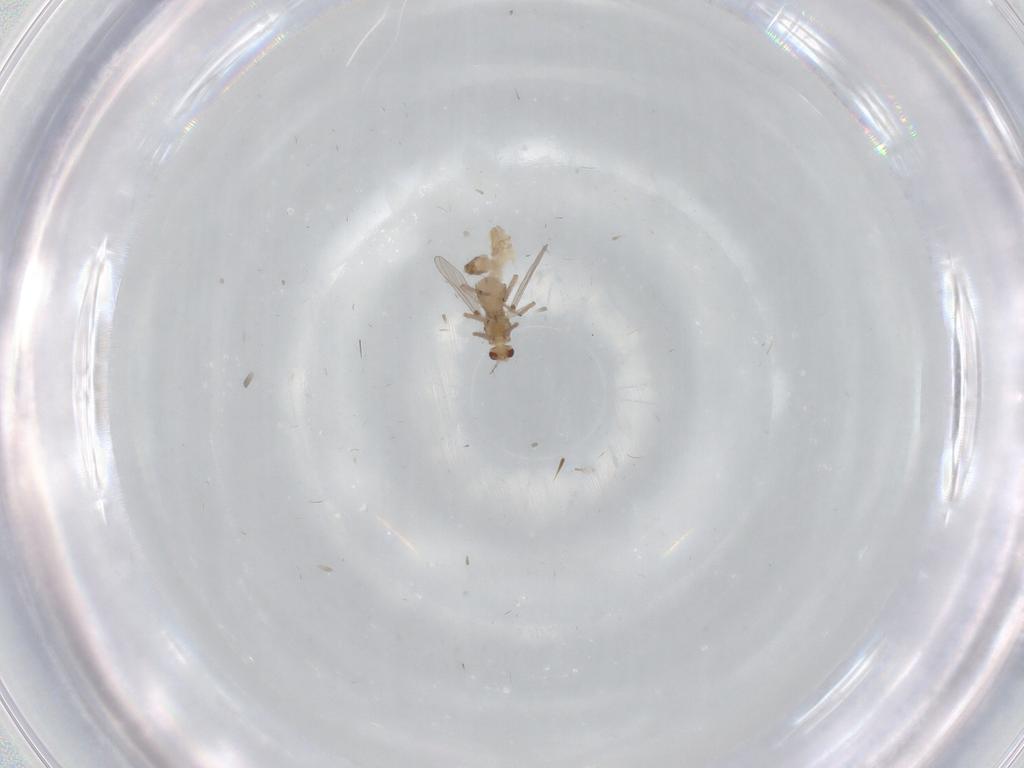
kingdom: Animalia
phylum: Arthropoda
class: Insecta
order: Diptera
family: Chironomidae
